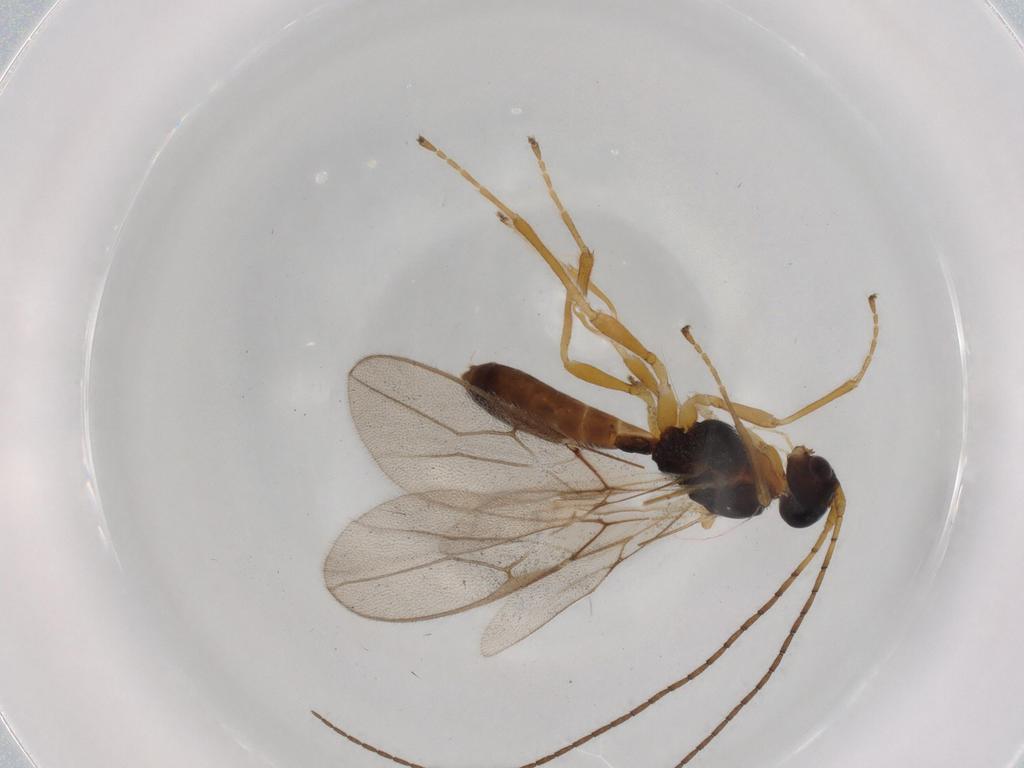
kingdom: Animalia
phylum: Arthropoda
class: Insecta
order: Hymenoptera
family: Braconidae
